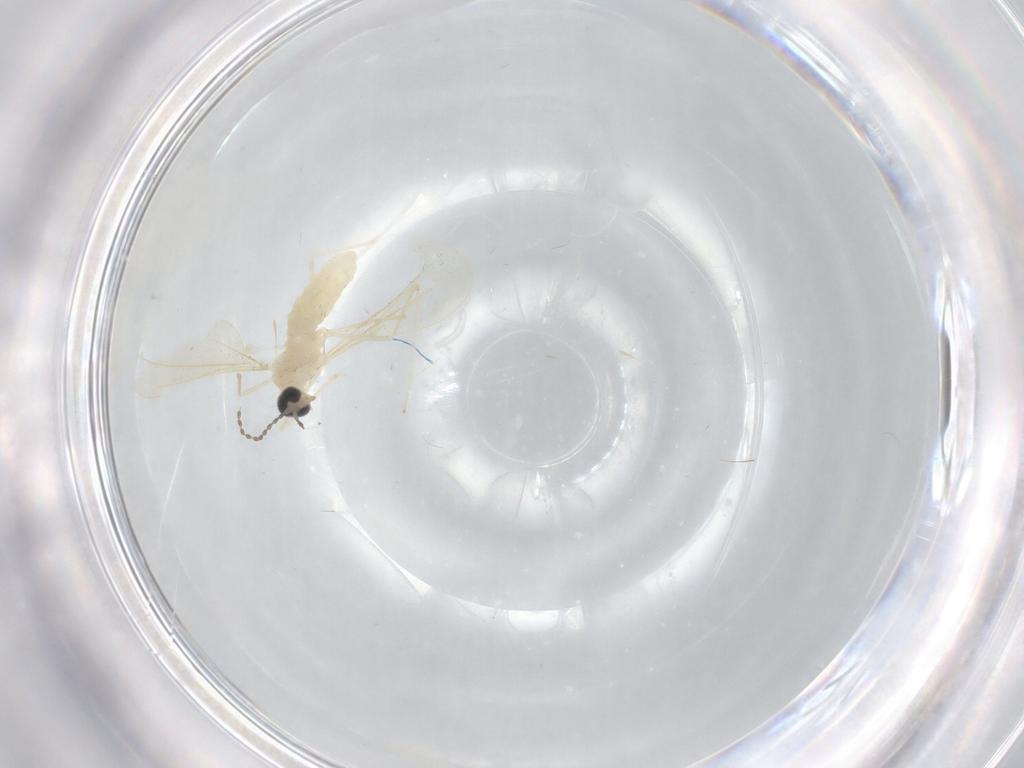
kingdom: Animalia
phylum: Arthropoda
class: Insecta
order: Diptera
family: Cecidomyiidae
